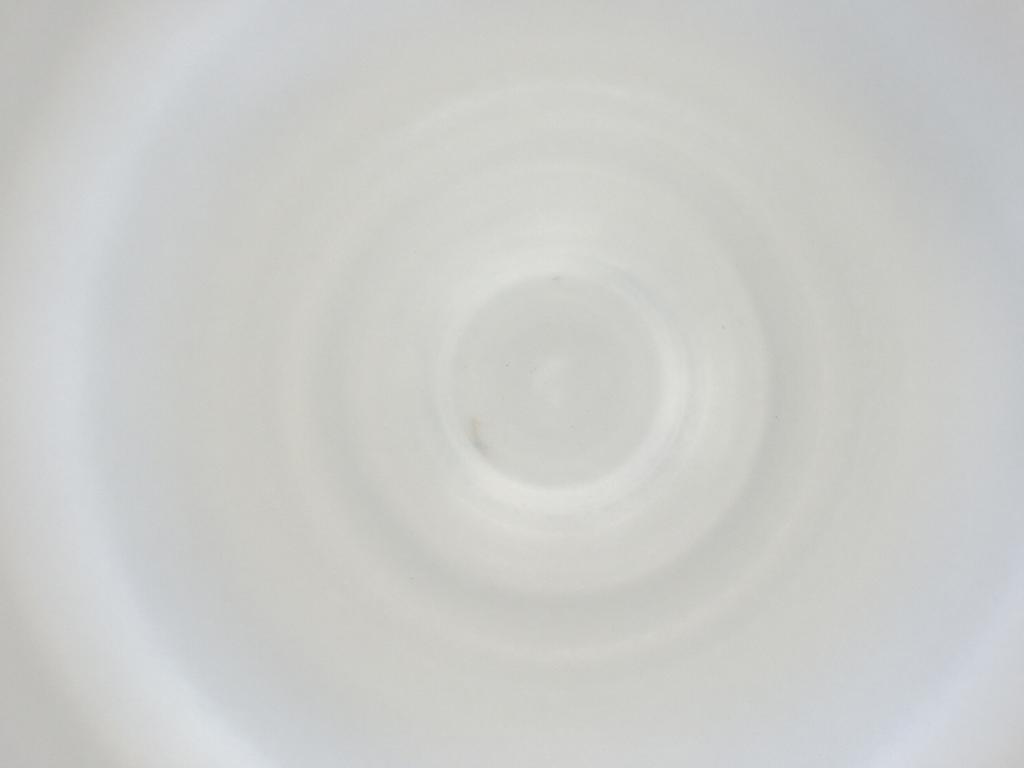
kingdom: Animalia
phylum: Arthropoda
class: Insecta
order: Diptera
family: Cecidomyiidae
